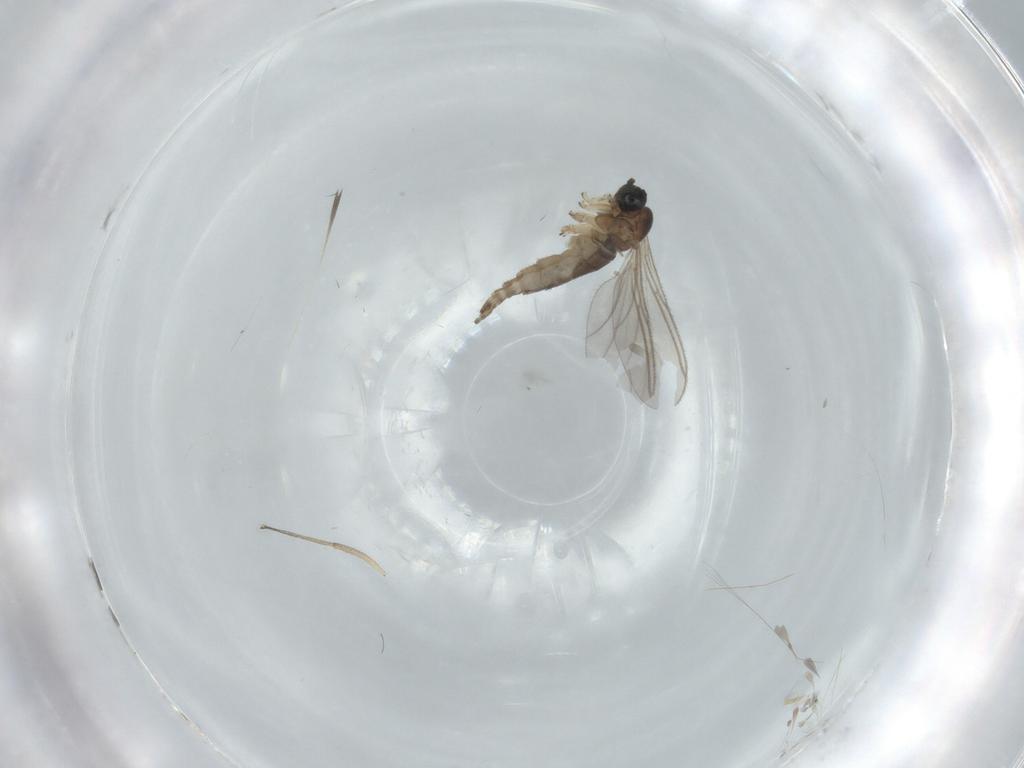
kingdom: Animalia
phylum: Arthropoda
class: Insecta
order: Diptera
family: Sciaridae
